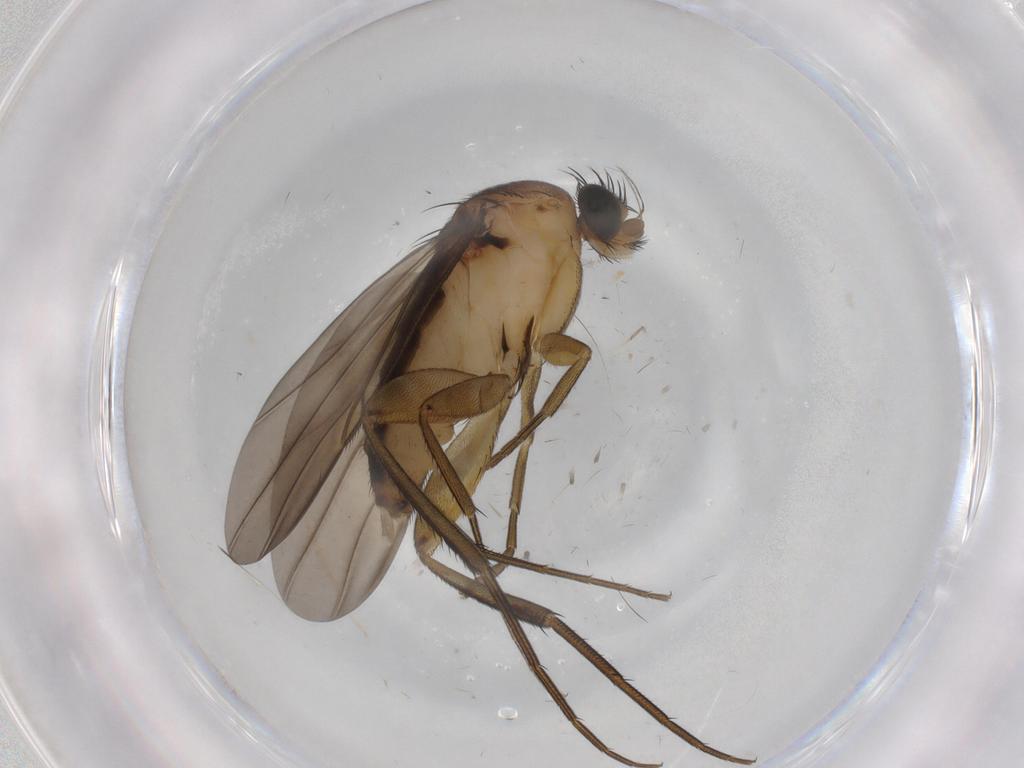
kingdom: Animalia
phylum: Arthropoda
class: Insecta
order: Diptera
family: Phoridae
